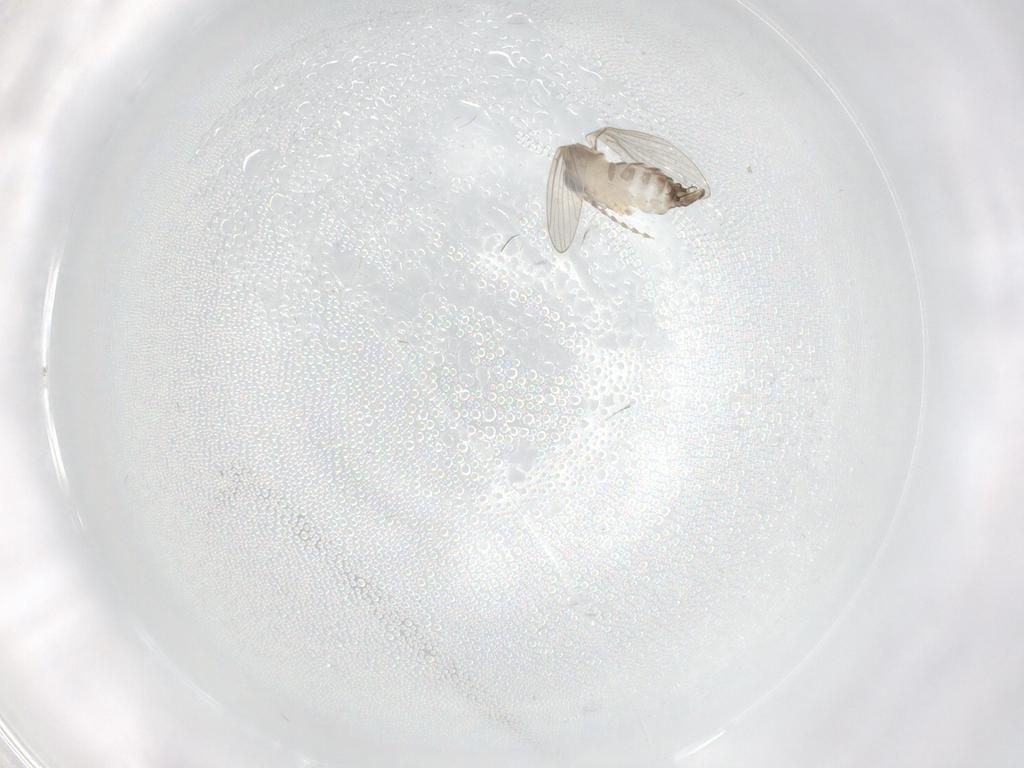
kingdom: Animalia
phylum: Arthropoda
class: Insecta
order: Diptera
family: Psychodidae
